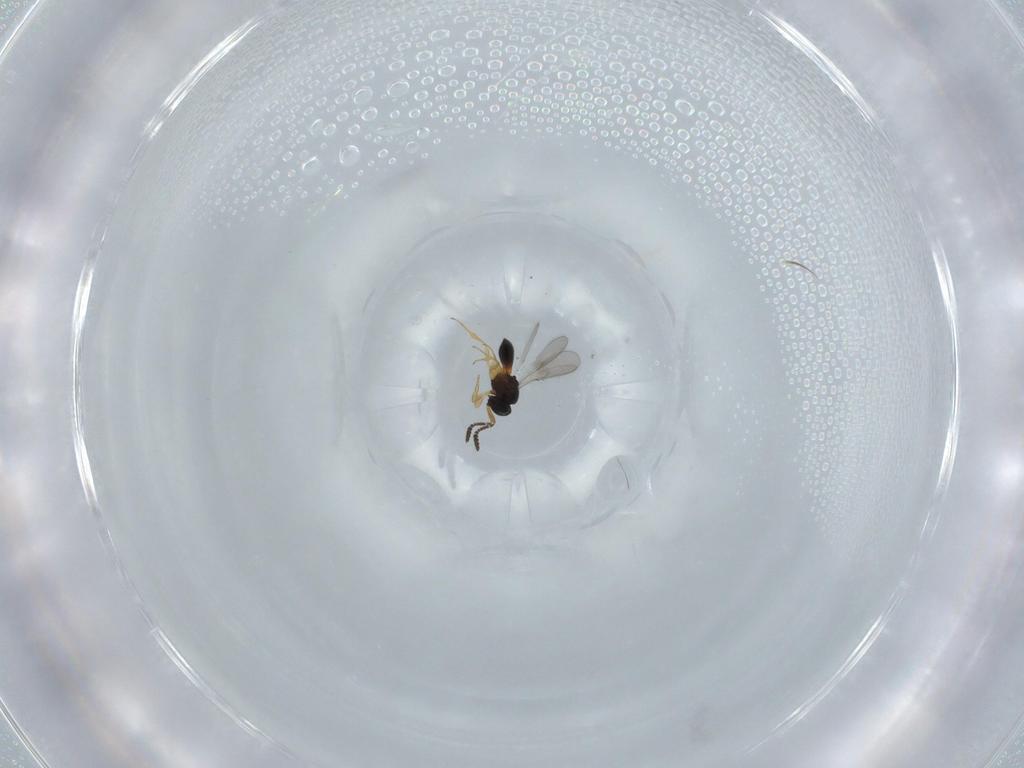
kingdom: Animalia
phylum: Arthropoda
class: Insecta
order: Hymenoptera
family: Scelionidae
